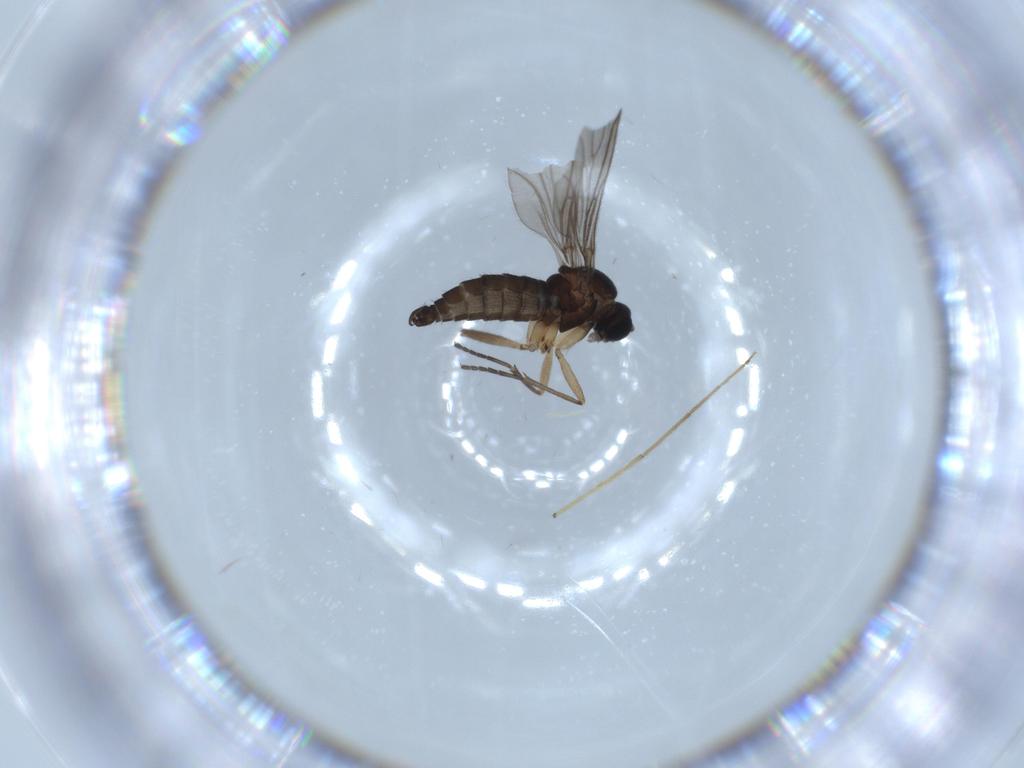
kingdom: Animalia
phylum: Arthropoda
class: Insecta
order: Diptera
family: Sciaridae
